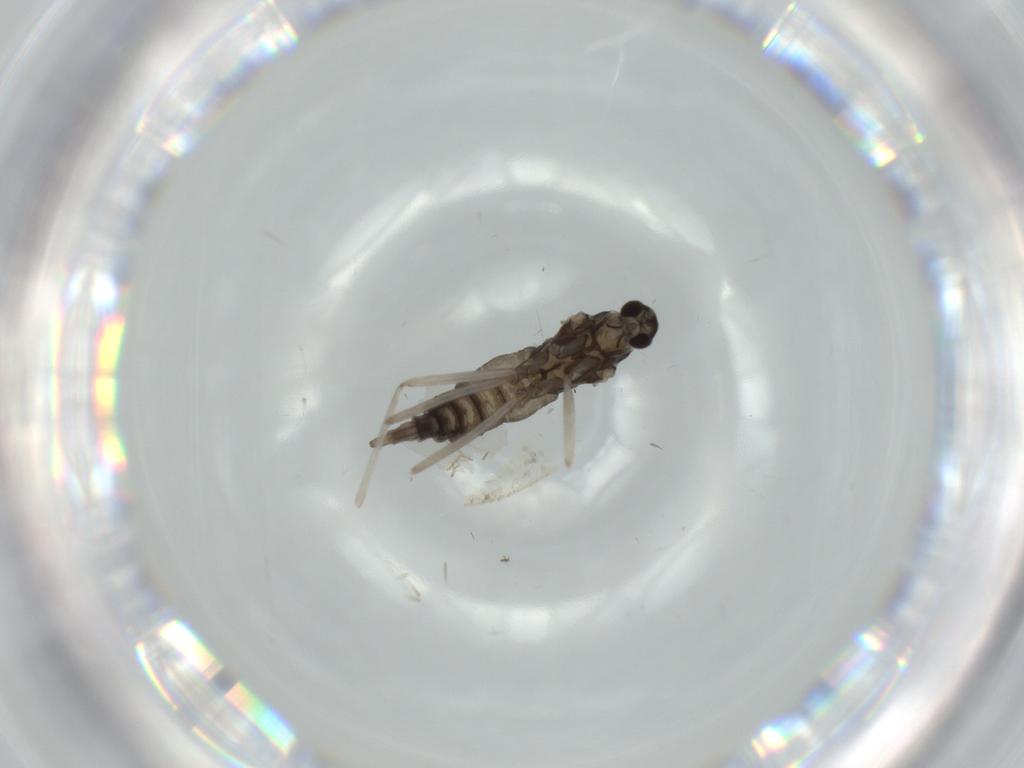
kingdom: Animalia
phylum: Arthropoda
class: Insecta
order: Diptera
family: Cecidomyiidae
